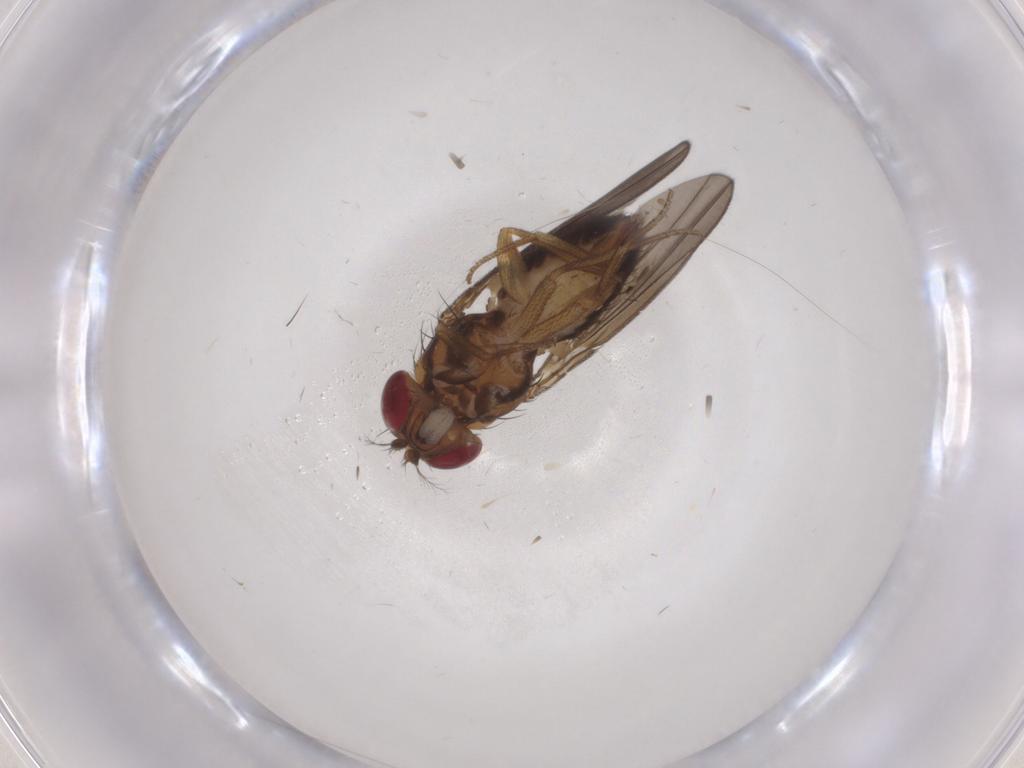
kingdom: Animalia
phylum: Arthropoda
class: Insecta
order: Diptera
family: Drosophilidae
